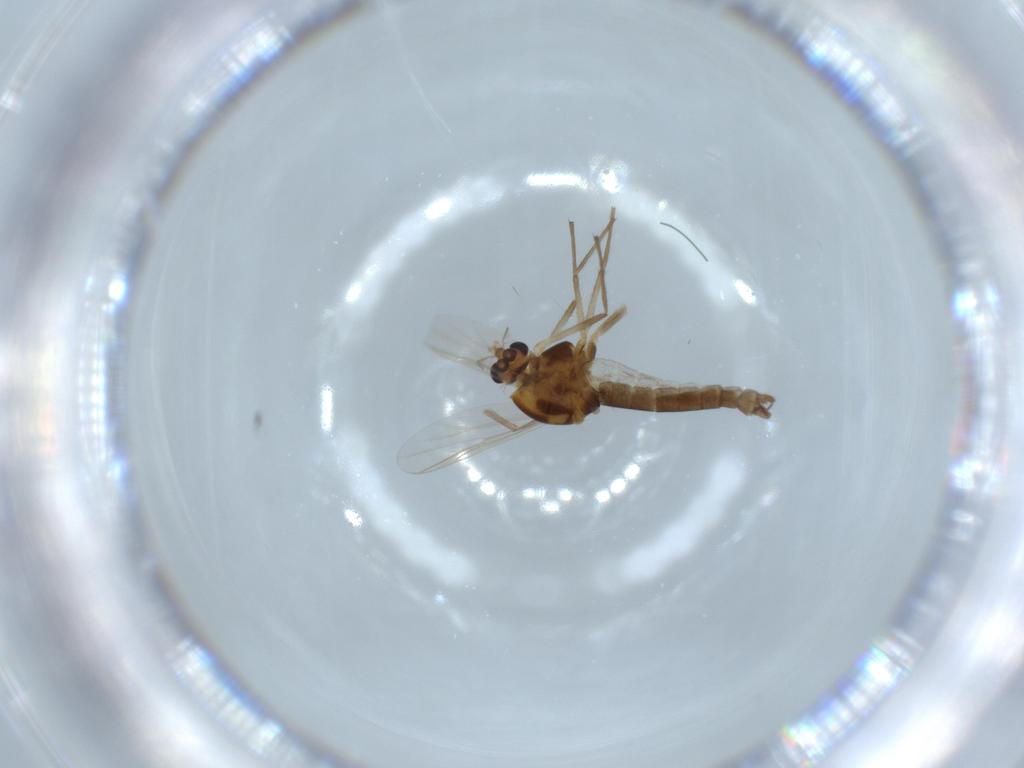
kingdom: Animalia
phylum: Arthropoda
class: Insecta
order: Diptera
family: Chironomidae
